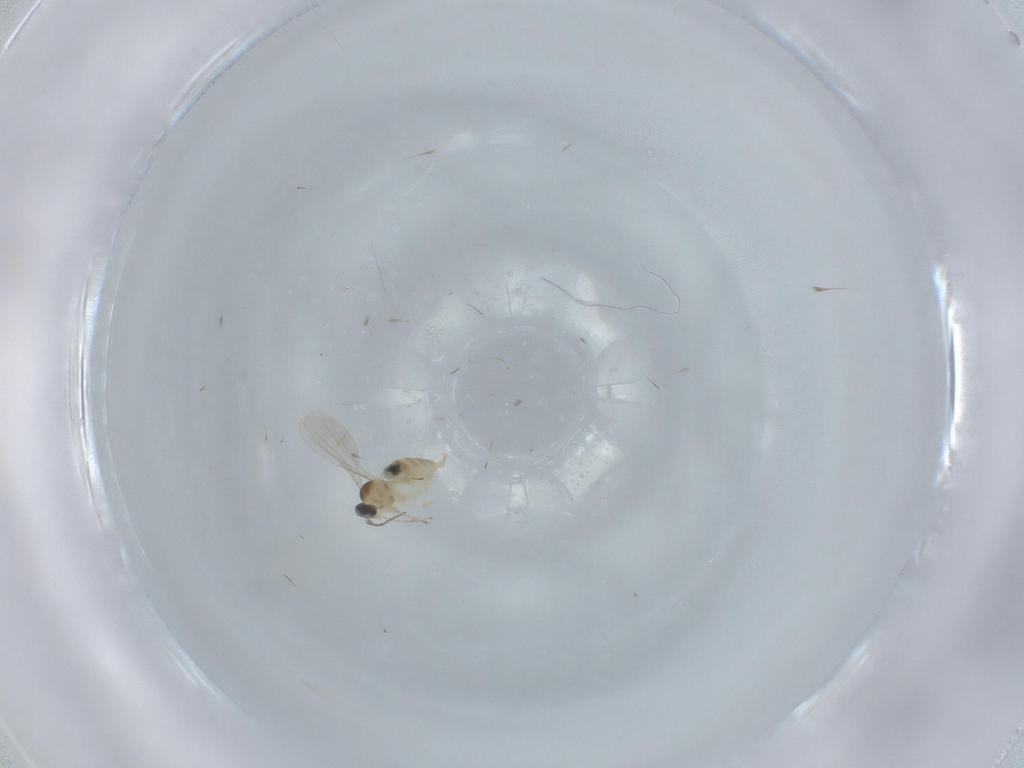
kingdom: Animalia
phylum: Arthropoda
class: Insecta
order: Diptera
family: Cecidomyiidae
